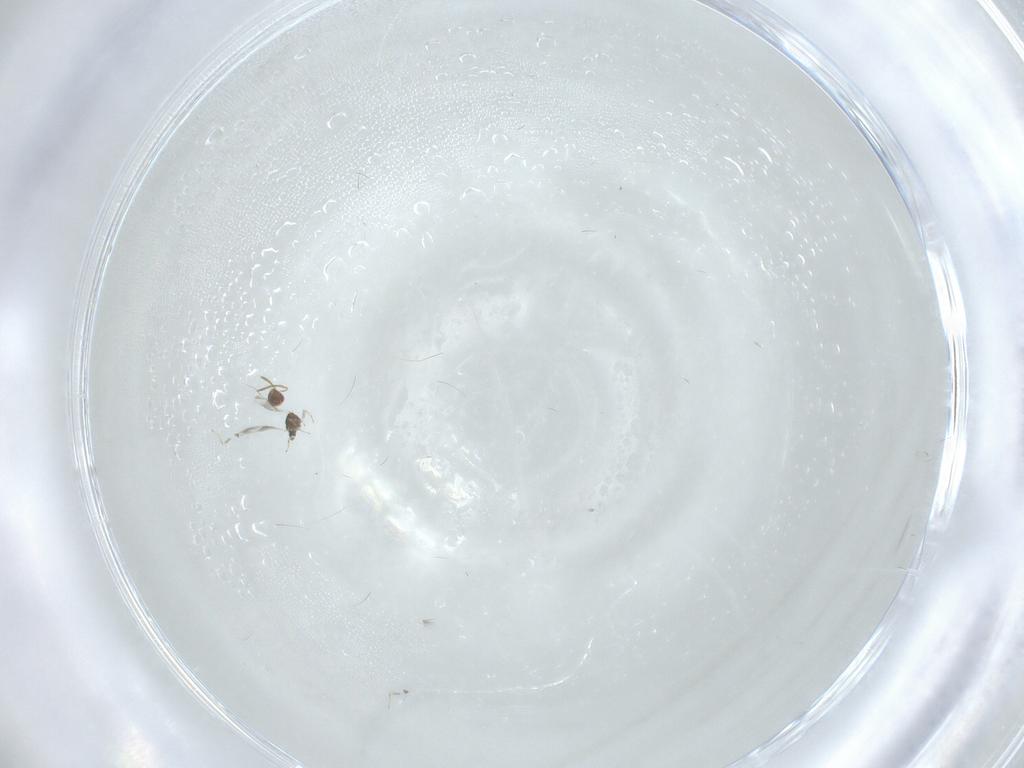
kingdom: Animalia
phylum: Arthropoda
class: Insecta
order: Hymenoptera
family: Azotidae
